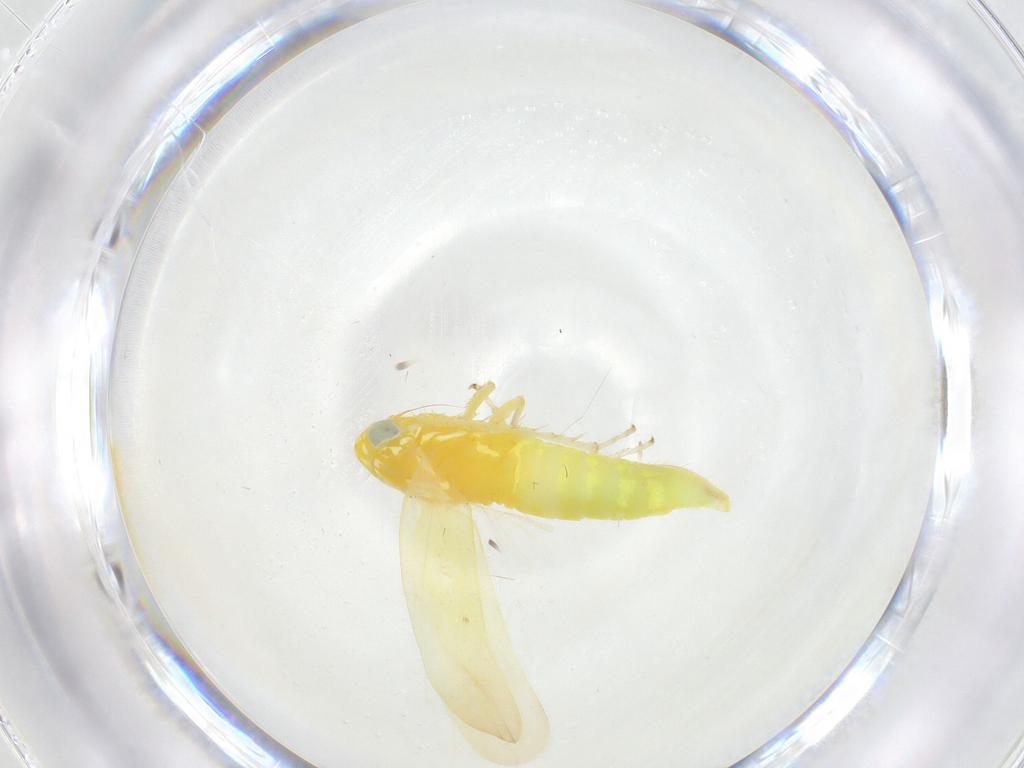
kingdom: Animalia
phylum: Arthropoda
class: Insecta
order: Hemiptera
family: Cicadellidae
